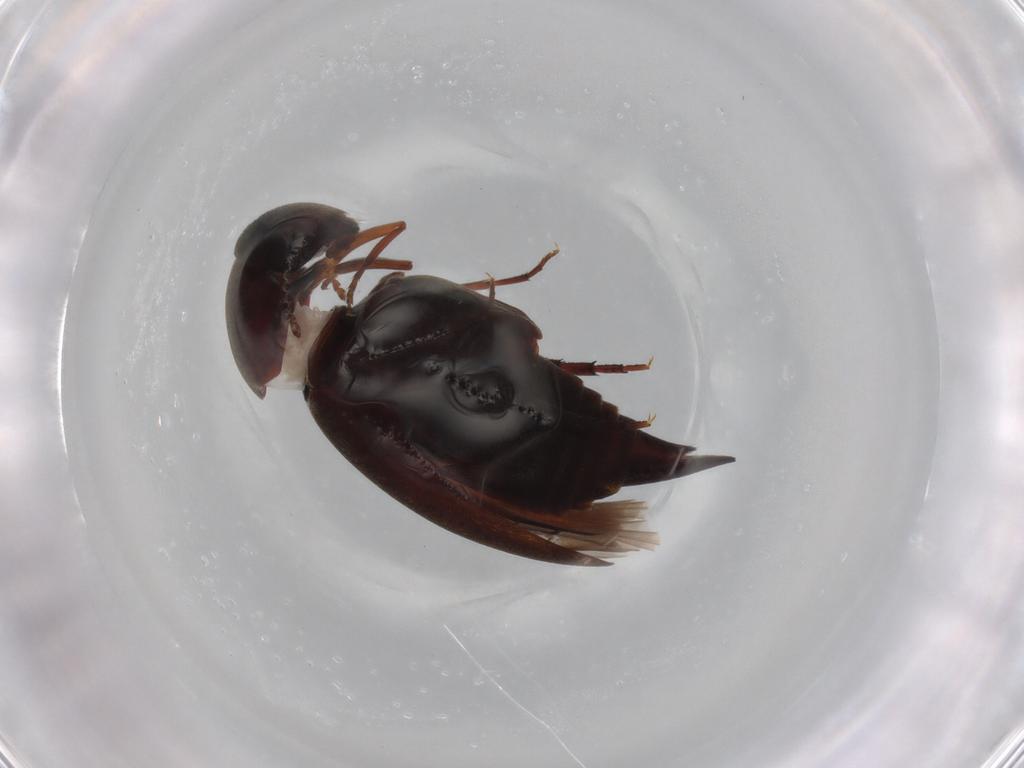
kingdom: Animalia
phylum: Arthropoda
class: Insecta
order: Coleoptera
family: Mordellidae
